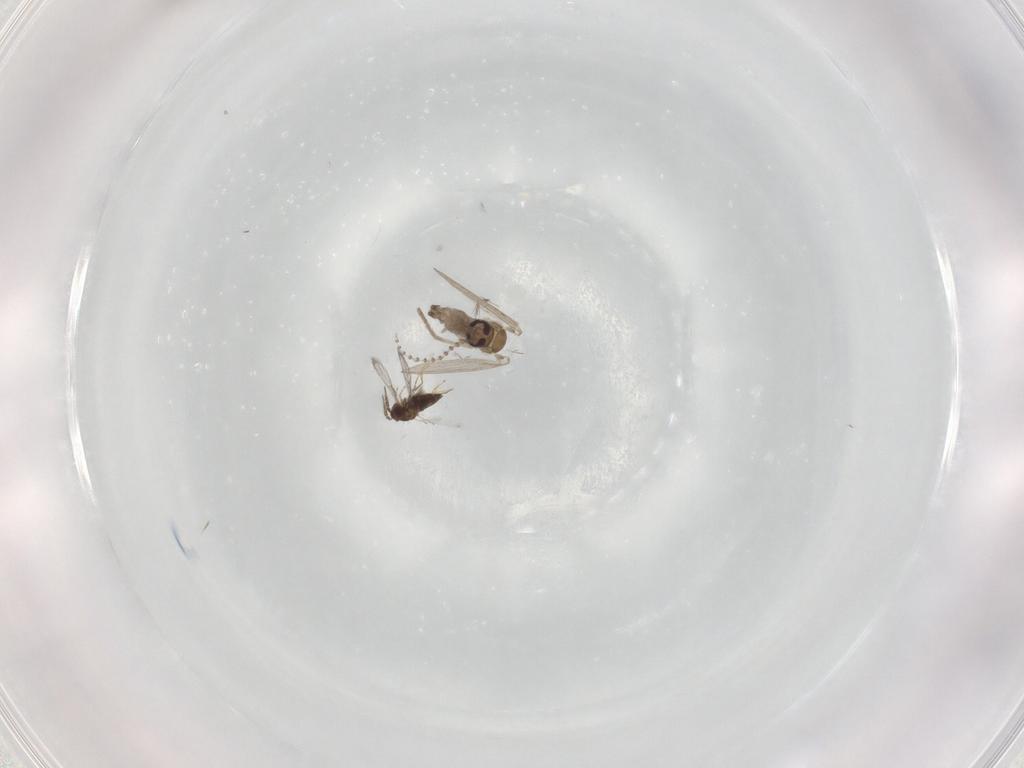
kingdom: Animalia
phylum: Arthropoda
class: Insecta
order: Diptera
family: Psychodidae
